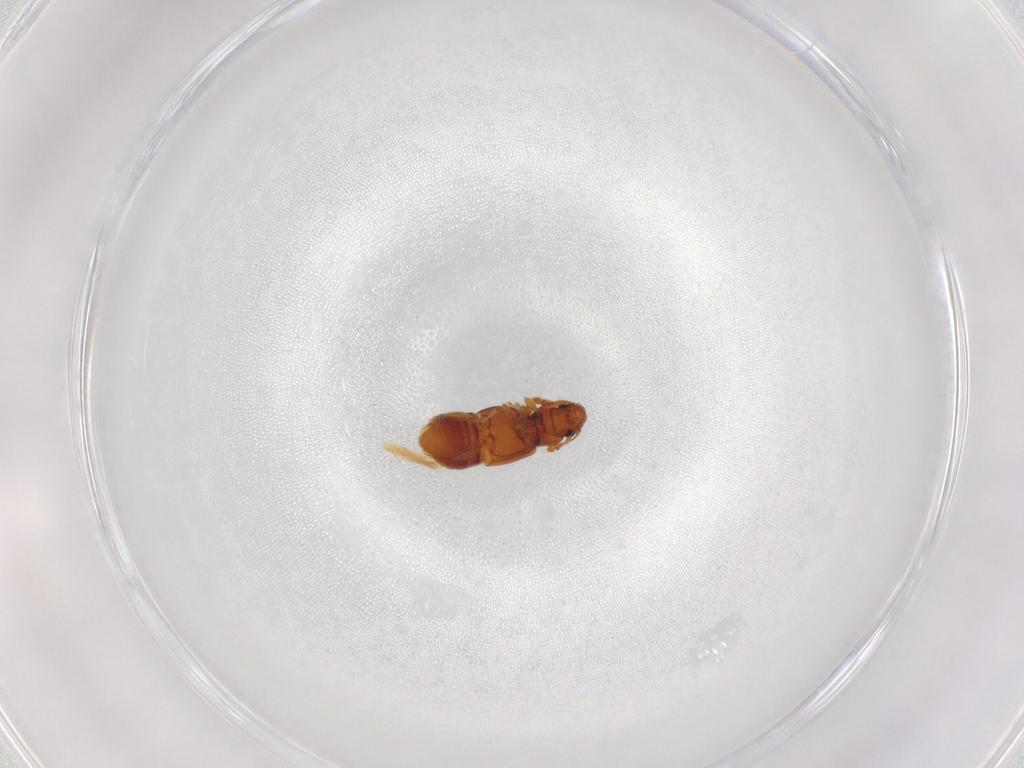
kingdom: Animalia
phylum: Arthropoda
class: Insecta
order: Coleoptera
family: Staphylinidae
